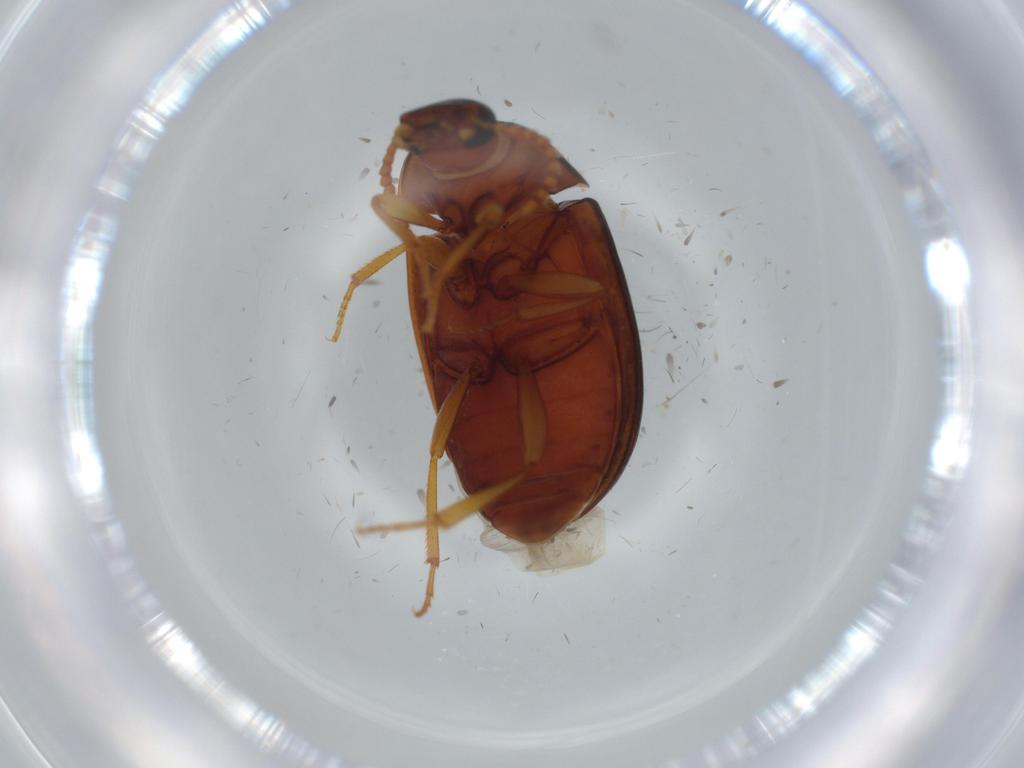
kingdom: Animalia
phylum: Arthropoda
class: Insecta
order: Coleoptera
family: Tenebrionidae
